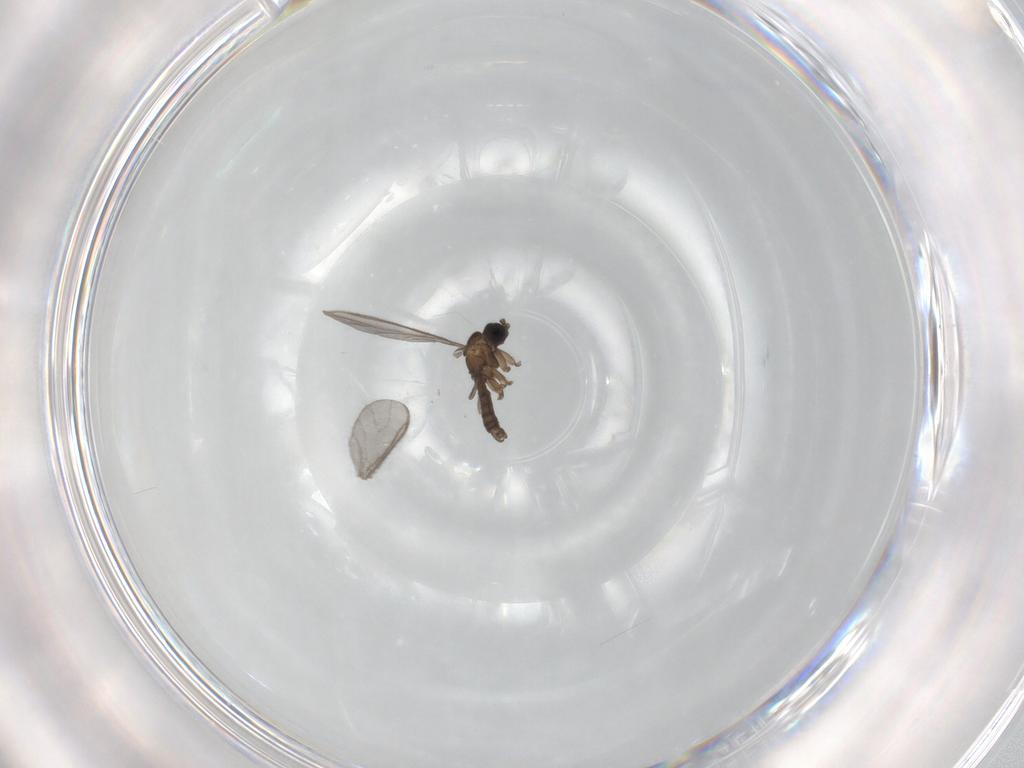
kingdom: Animalia
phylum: Arthropoda
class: Insecta
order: Diptera
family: Chironomidae
